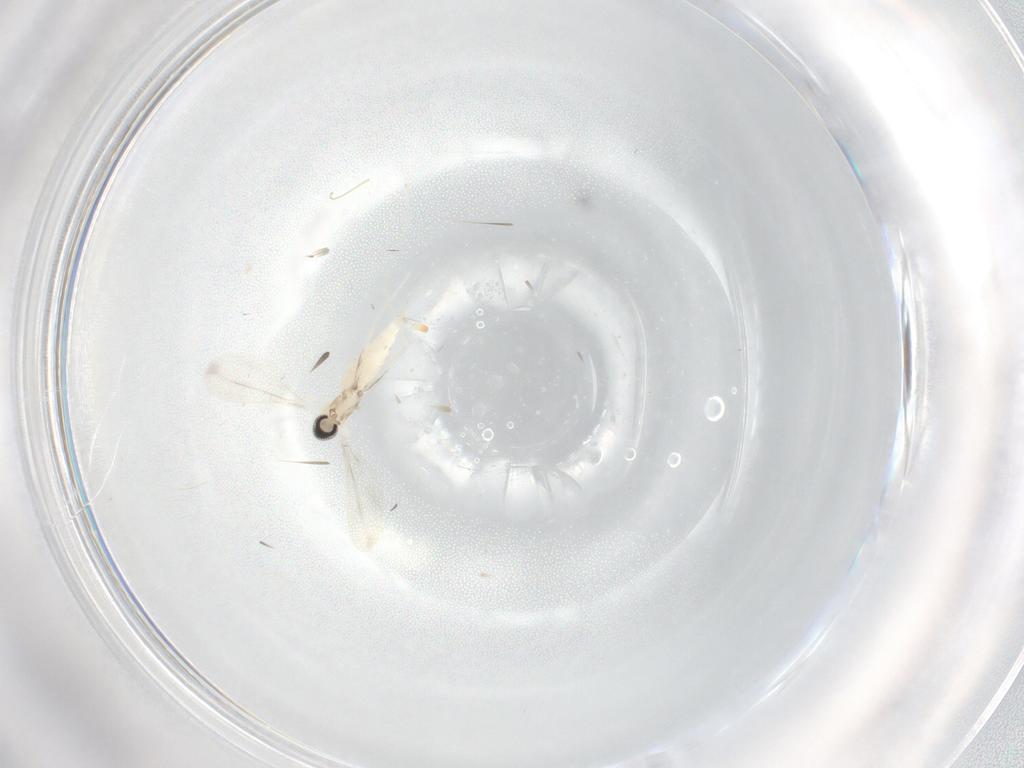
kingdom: Animalia
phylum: Arthropoda
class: Insecta
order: Diptera
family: Cecidomyiidae
